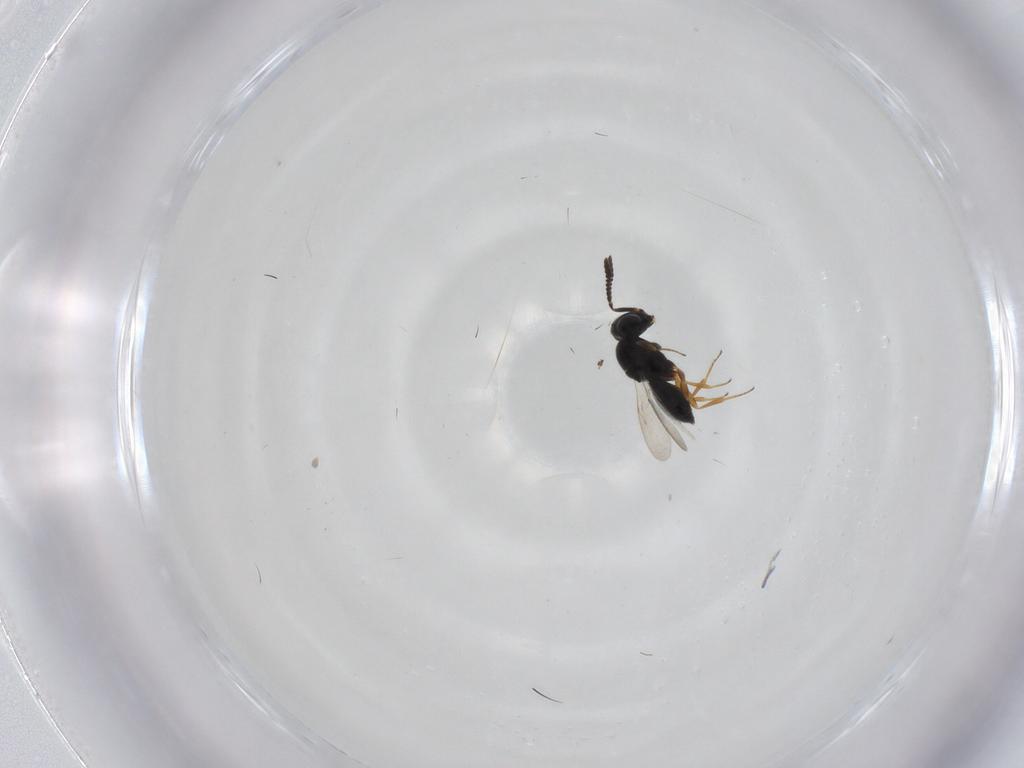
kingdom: Animalia
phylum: Arthropoda
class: Insecta
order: Hymenoptera
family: Scelionidae
